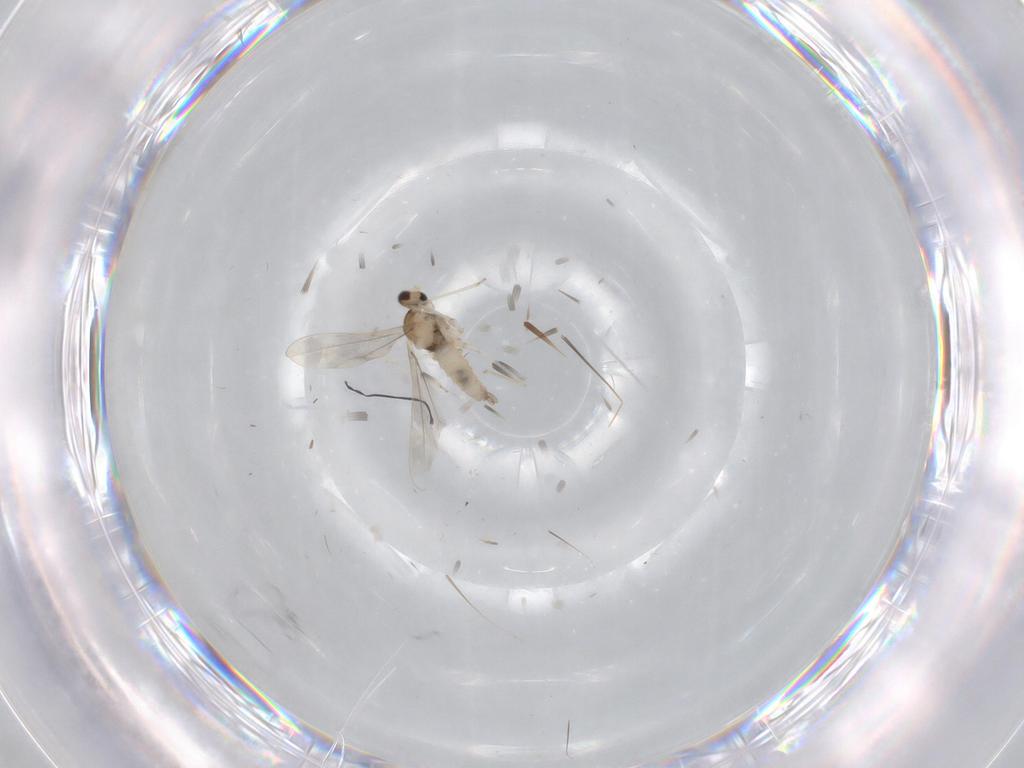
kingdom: Animalia
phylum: Arthropoda
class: Insecta
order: Diptera
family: Cecidomyiidae
